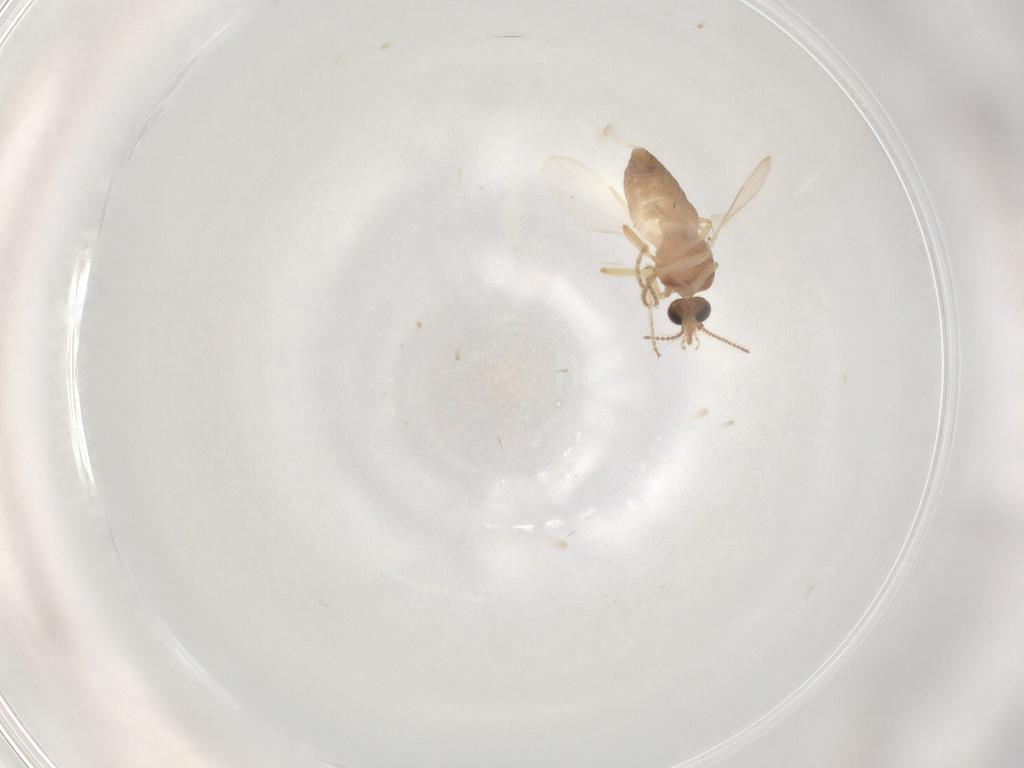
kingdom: Animalia
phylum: Arthropoda
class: Insecta
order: Diptera
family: Ceratopogonidae
